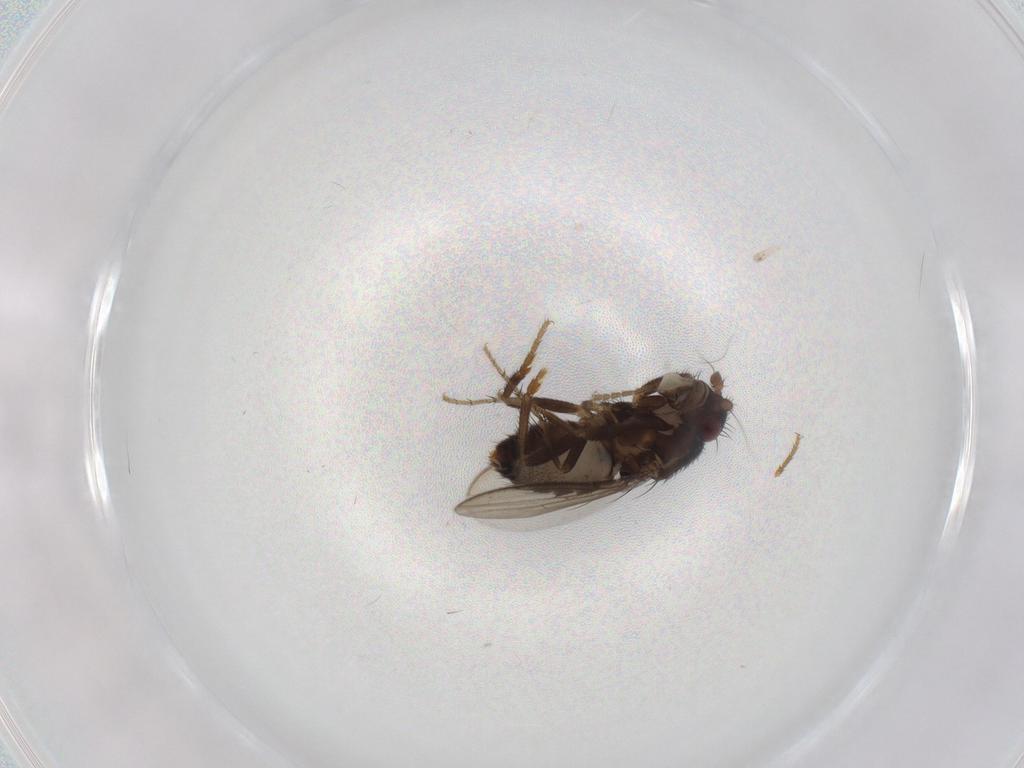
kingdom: Animalia
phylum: Arthropoda
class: Insecta
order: Diptera
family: Sphaeroceridae
